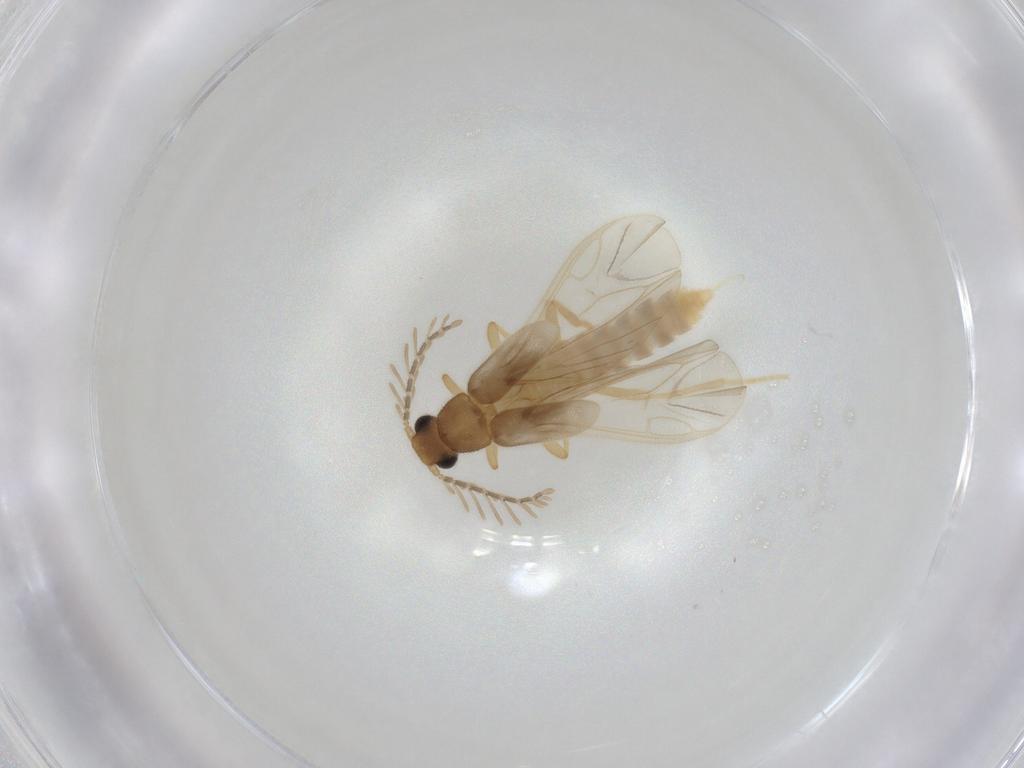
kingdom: Animalia
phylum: Arthropoda
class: Insecta
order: Coleoptera
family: Phengodidae
